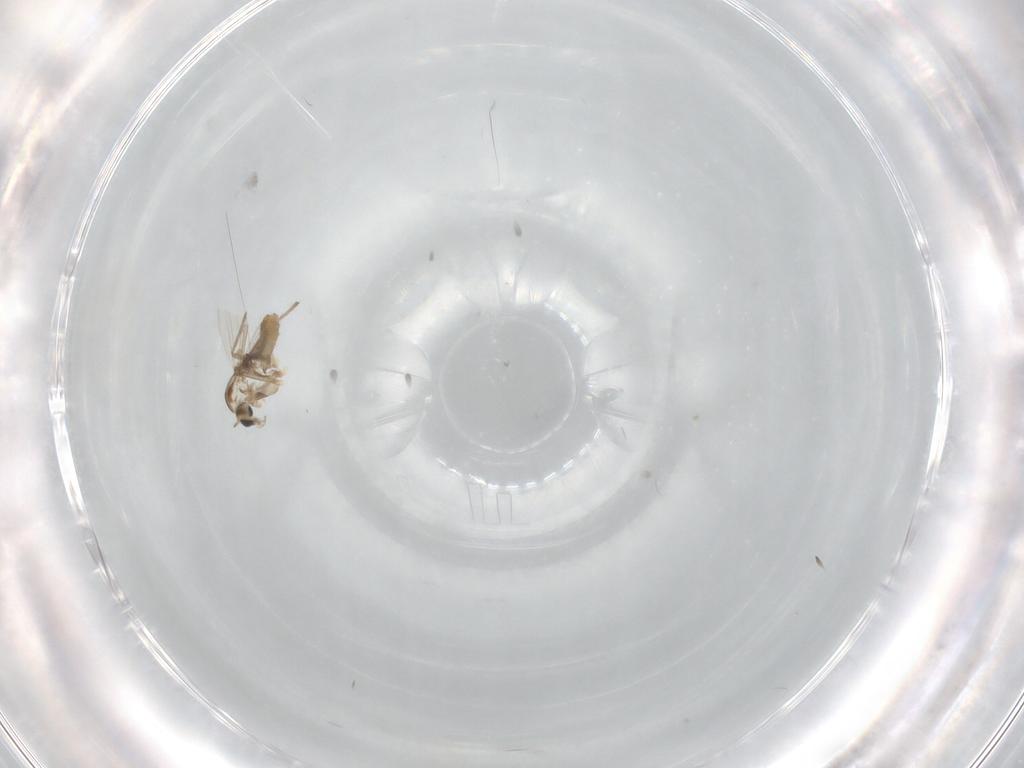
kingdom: Animalia
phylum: Arthropoda
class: Insecta
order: Diptera
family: Chironomidae
